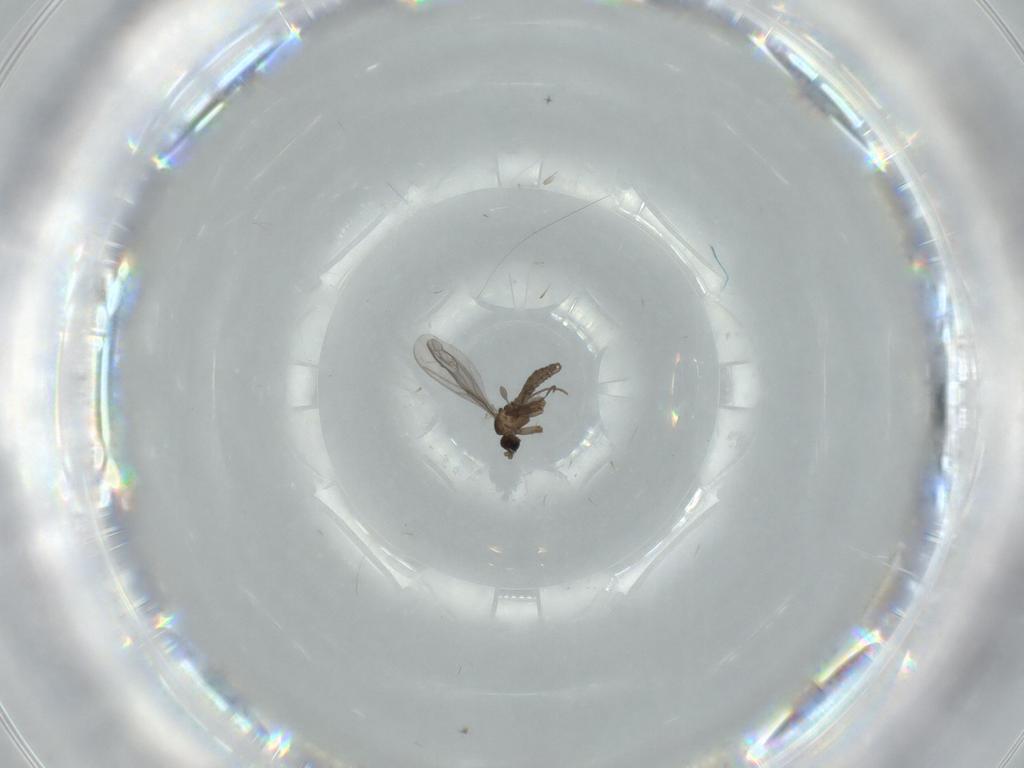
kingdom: Animalia
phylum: Arthropoda
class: Insecta
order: Diptera
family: Sciaridae
